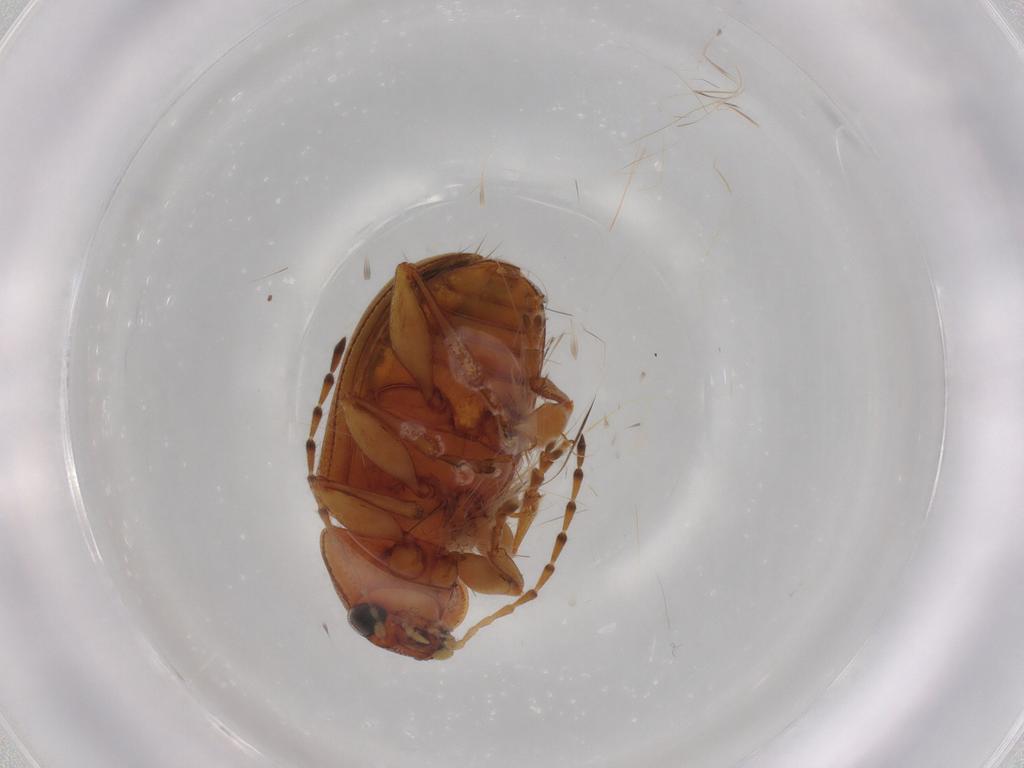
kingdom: Animalia
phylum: Arthropoda
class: Insecta
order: Coleoptera
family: Chrysomelidae
